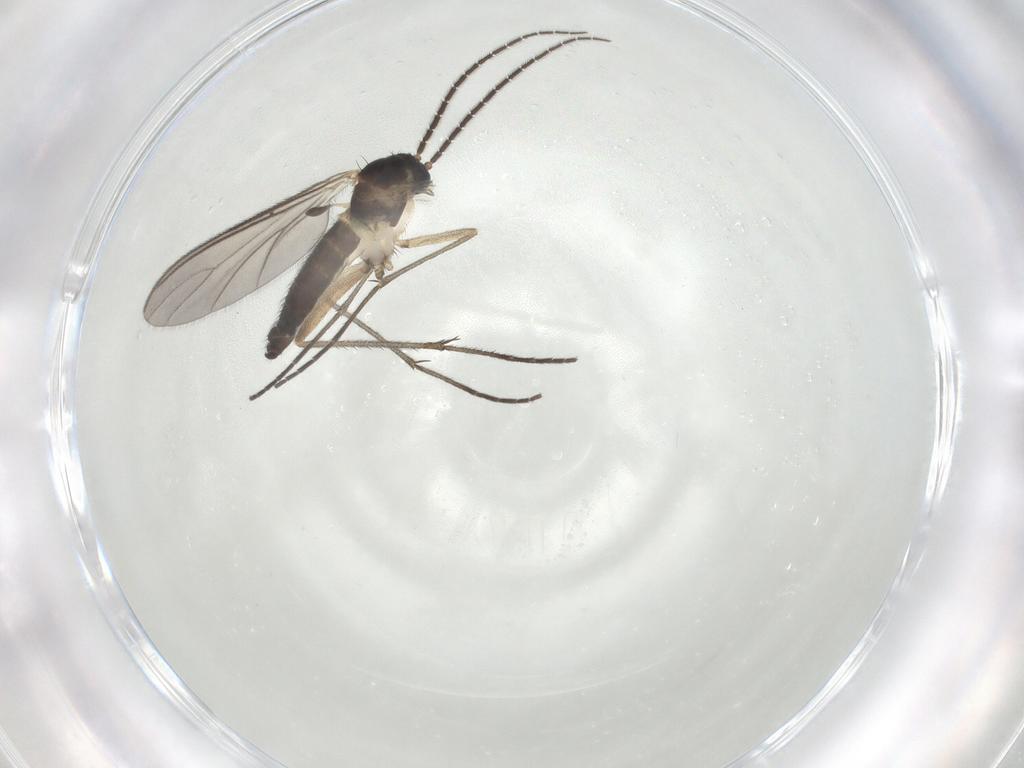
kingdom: Animalia
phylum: Arthropoda
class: Insecta
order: Diptera
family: Sciaridae
